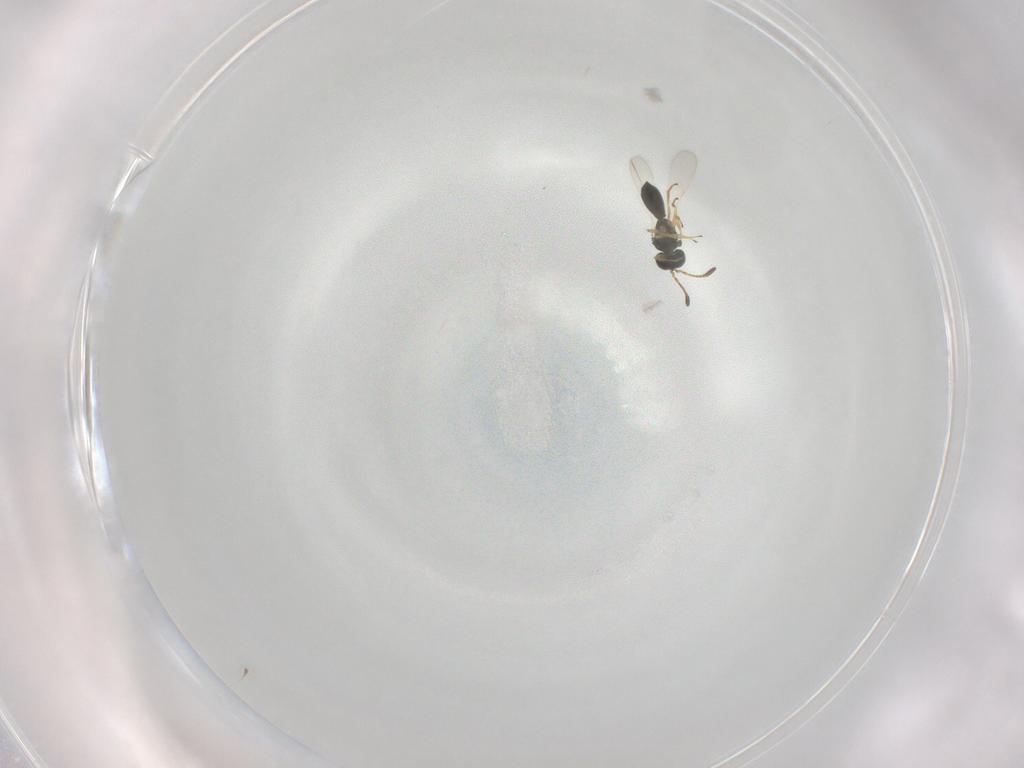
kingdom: Animalia
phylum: Arthropoda
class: Insecta
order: Hymenoptera
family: Scelionidae
